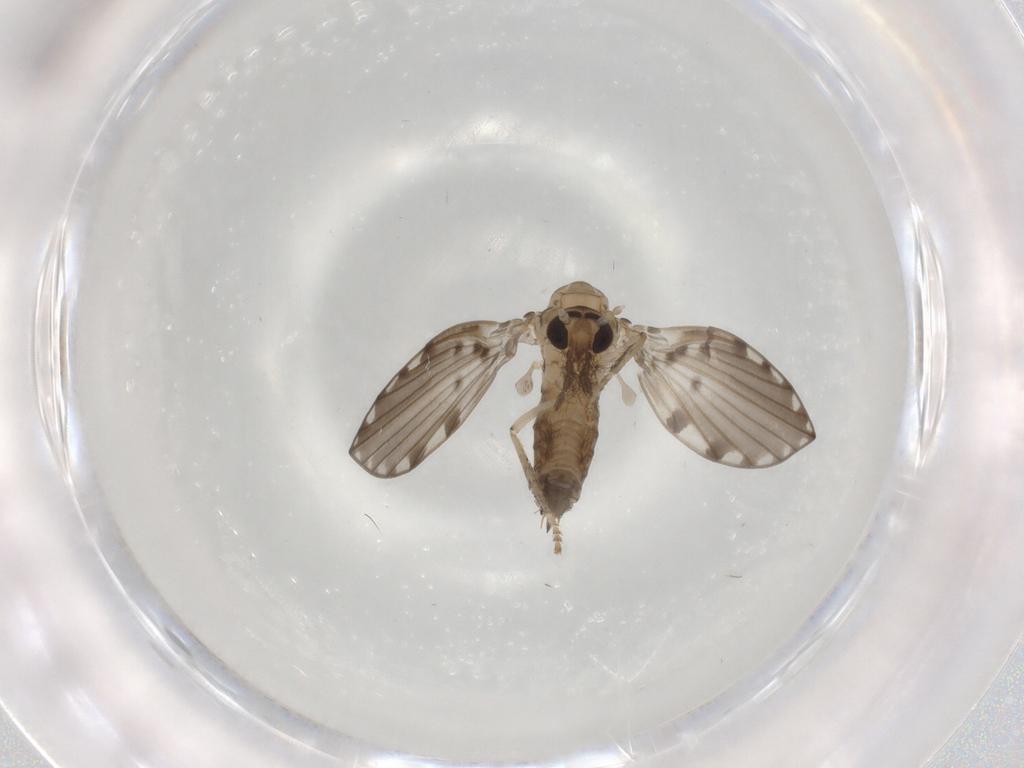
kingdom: Animalia
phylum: Arthropoda
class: Insecta
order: Diptera
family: Psychodidae
